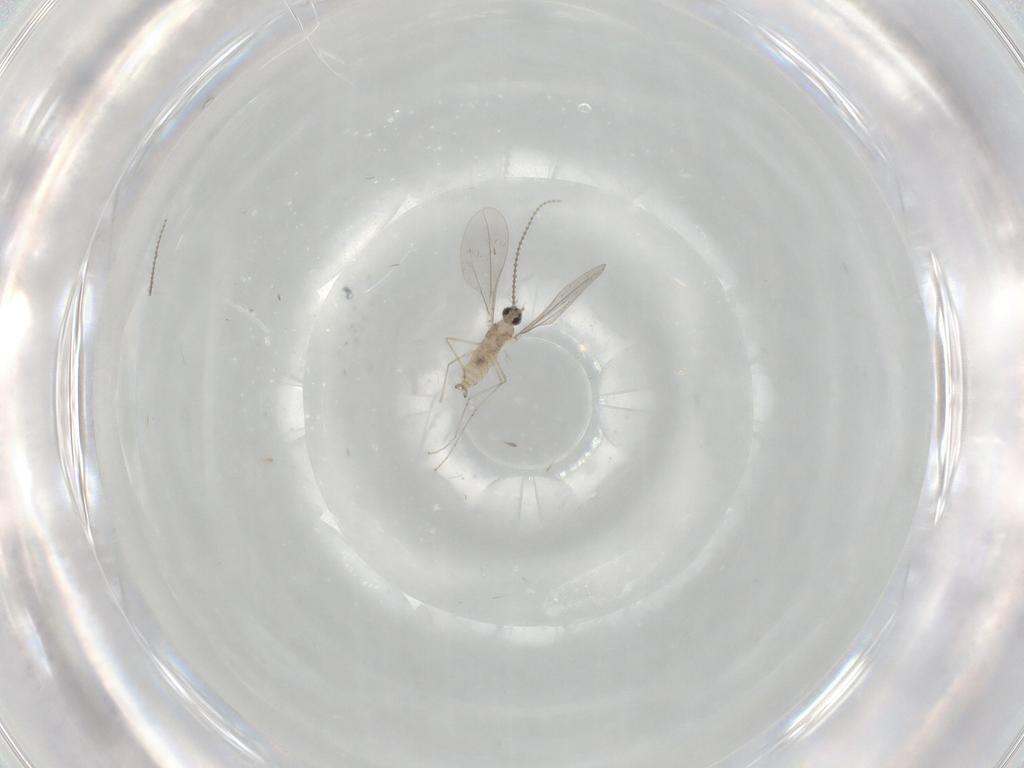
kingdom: Animalia
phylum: Arthropoda
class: Insecta
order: Diptera
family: Cecidomyiidae
